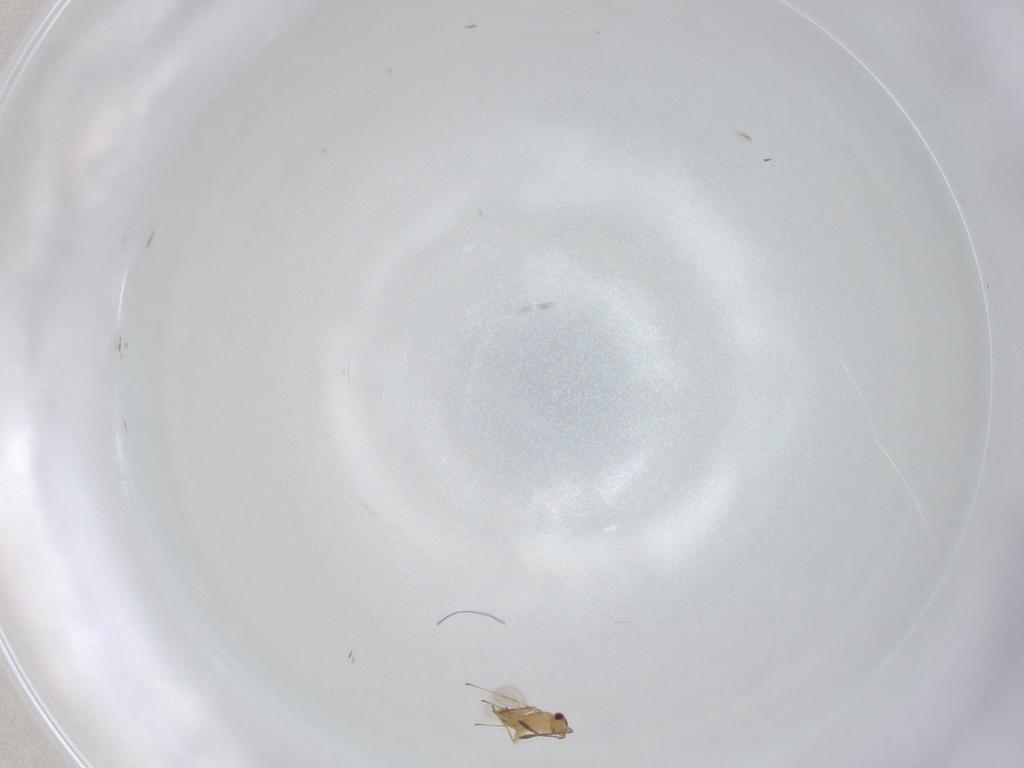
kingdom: Animalia
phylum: Arthropoda
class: Insecta
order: Hymenoptera
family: Mymaridae
